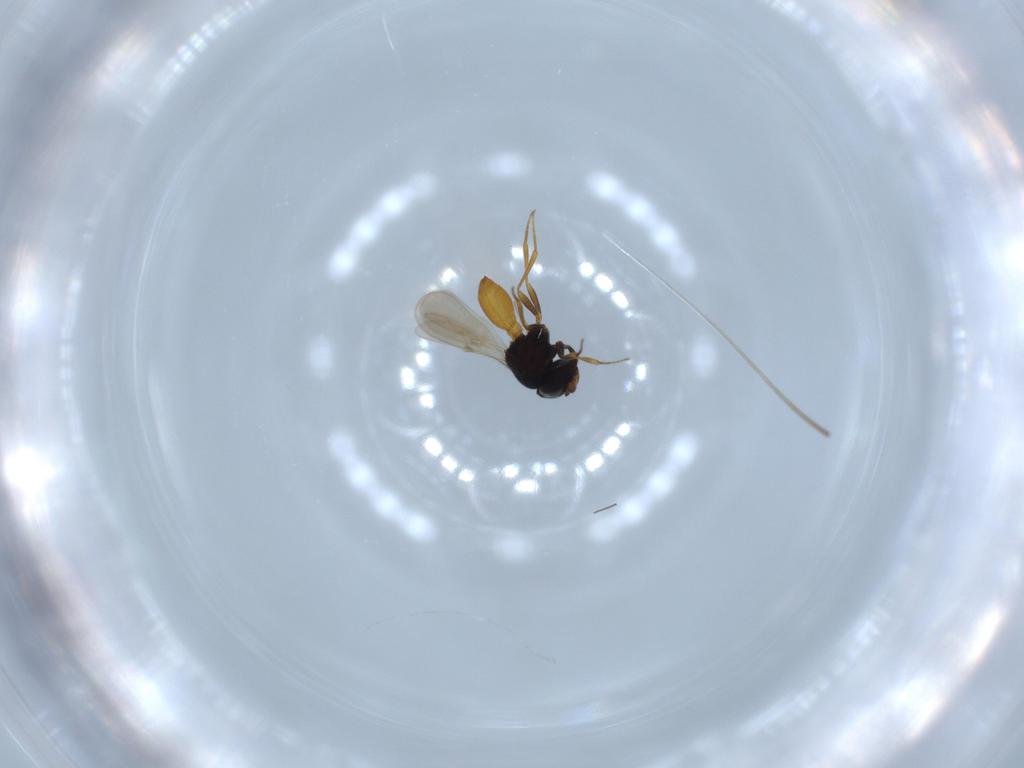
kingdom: Animalia
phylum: Arthropoda
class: Insecta
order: Hymenoptera
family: Scelionidae
